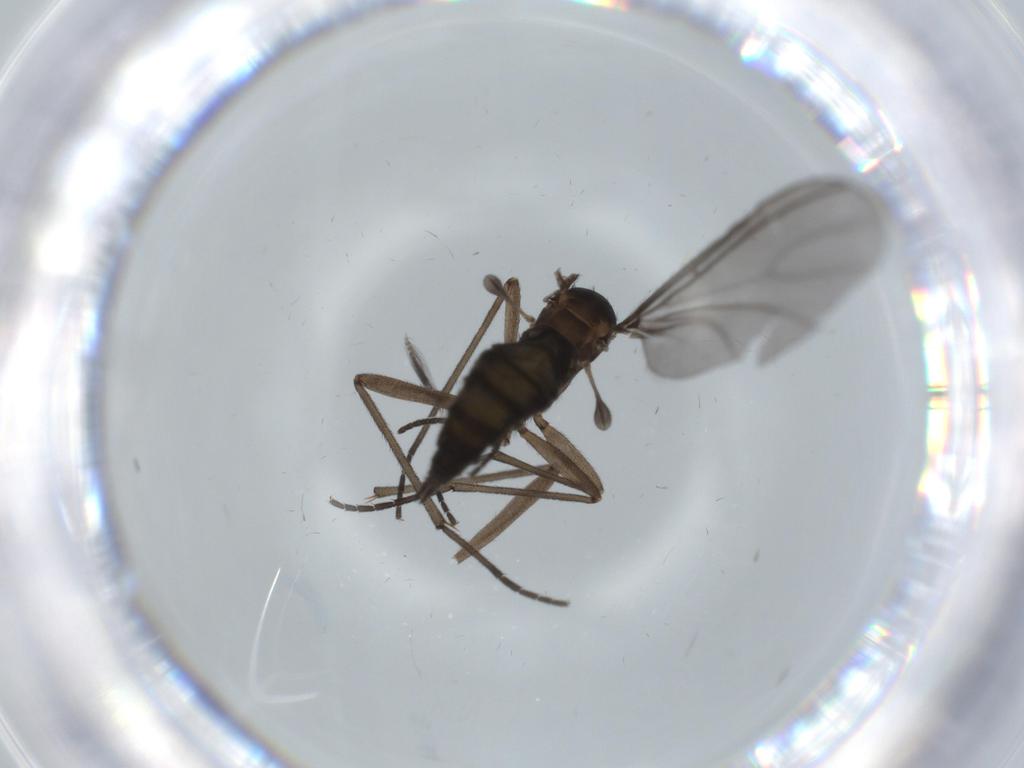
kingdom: Animalia
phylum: Arthropoda
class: Insecta
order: Diptera
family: Sciaridae
